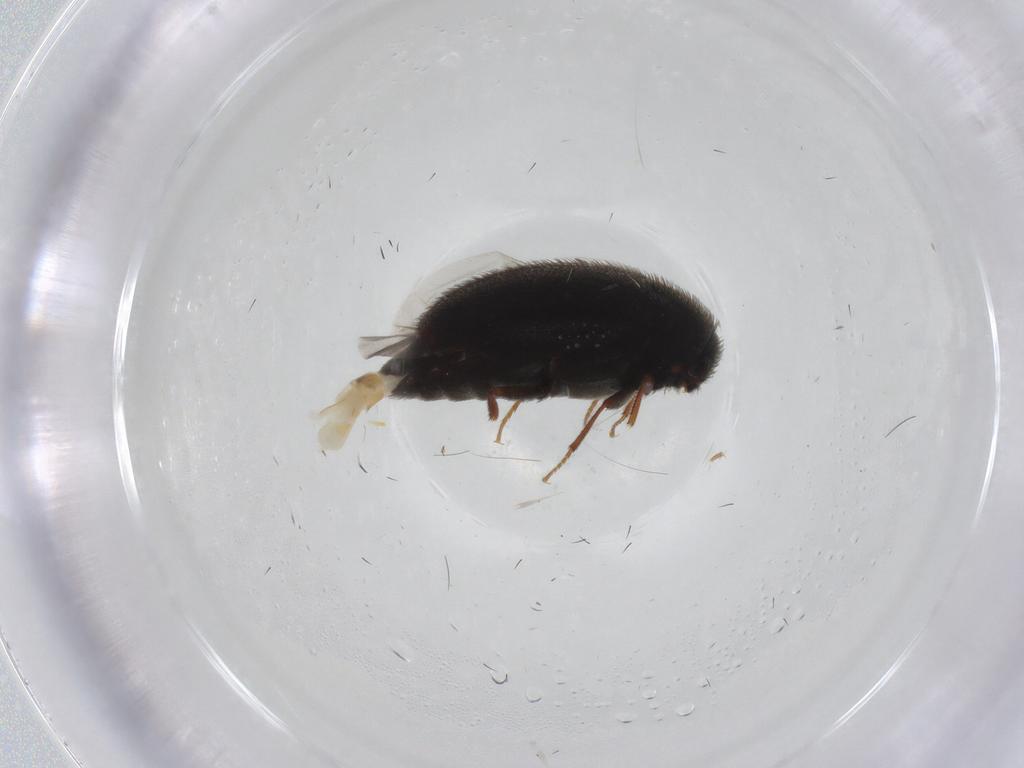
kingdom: Animalia
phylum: Arthropoda
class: Insecta
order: Coleoptera
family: Dermestidae
